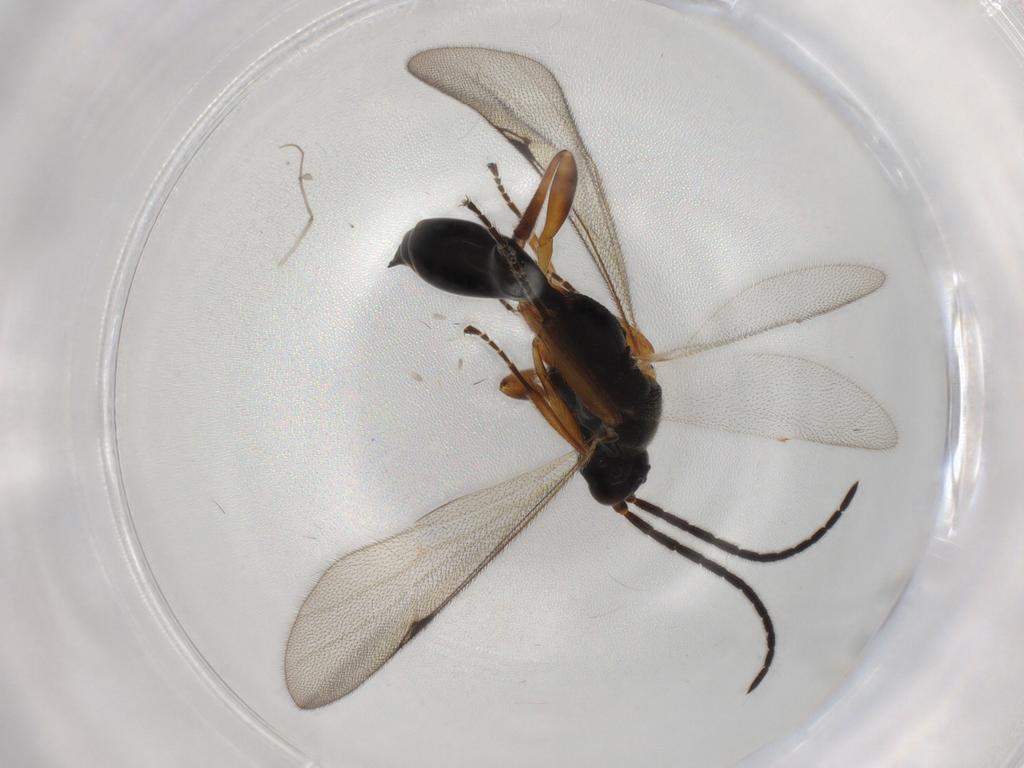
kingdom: Animalia
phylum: Arthropoda
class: Insecta
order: Hymenoptera
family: Proctotrupidae
